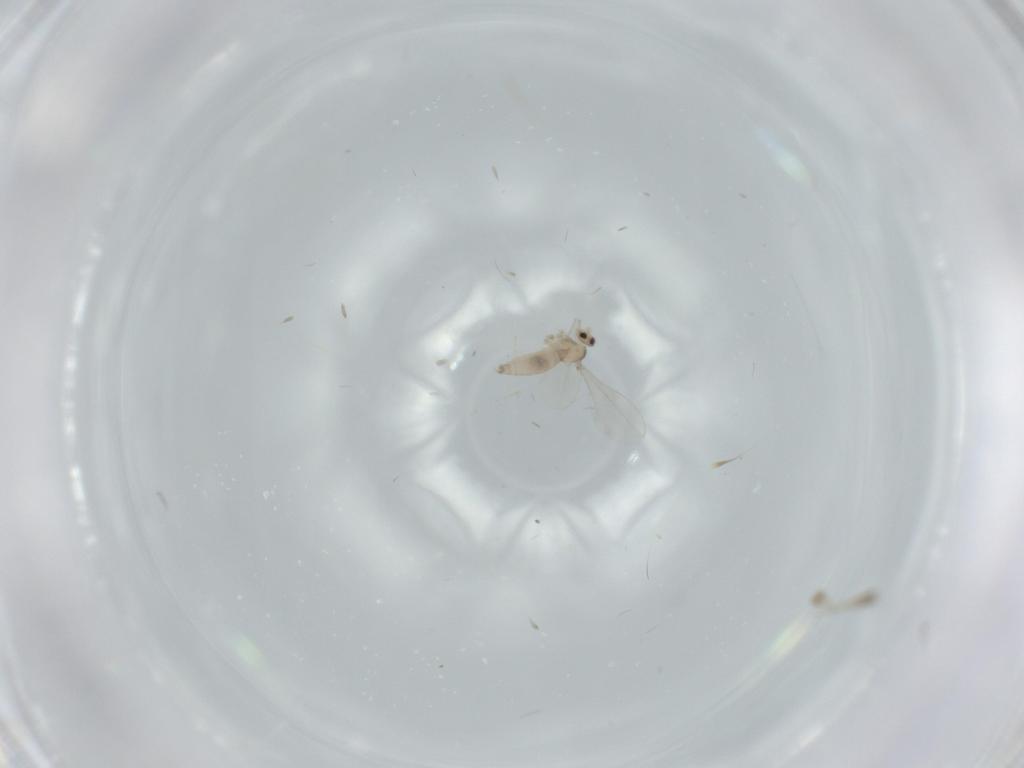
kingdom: Animalia
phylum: Arthropoda
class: Insecta
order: Diptera
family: Cecidomyiidae
